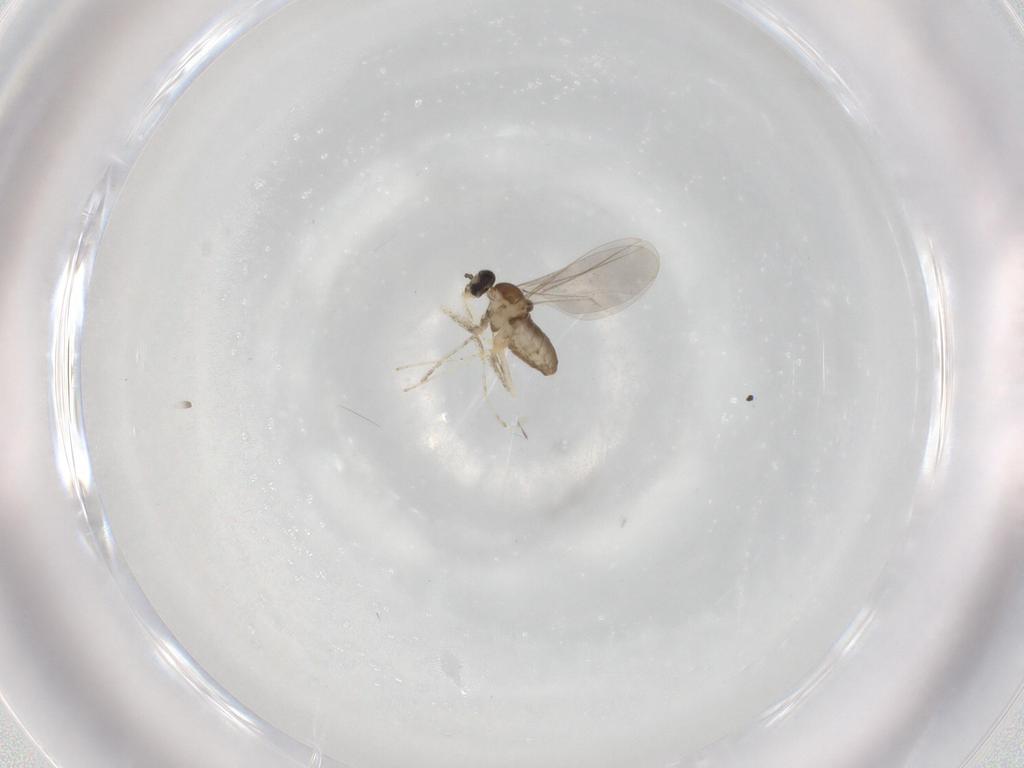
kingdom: Animalia
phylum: Arthropoda
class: Insecta
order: Diptera
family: Cecidomyiidae
